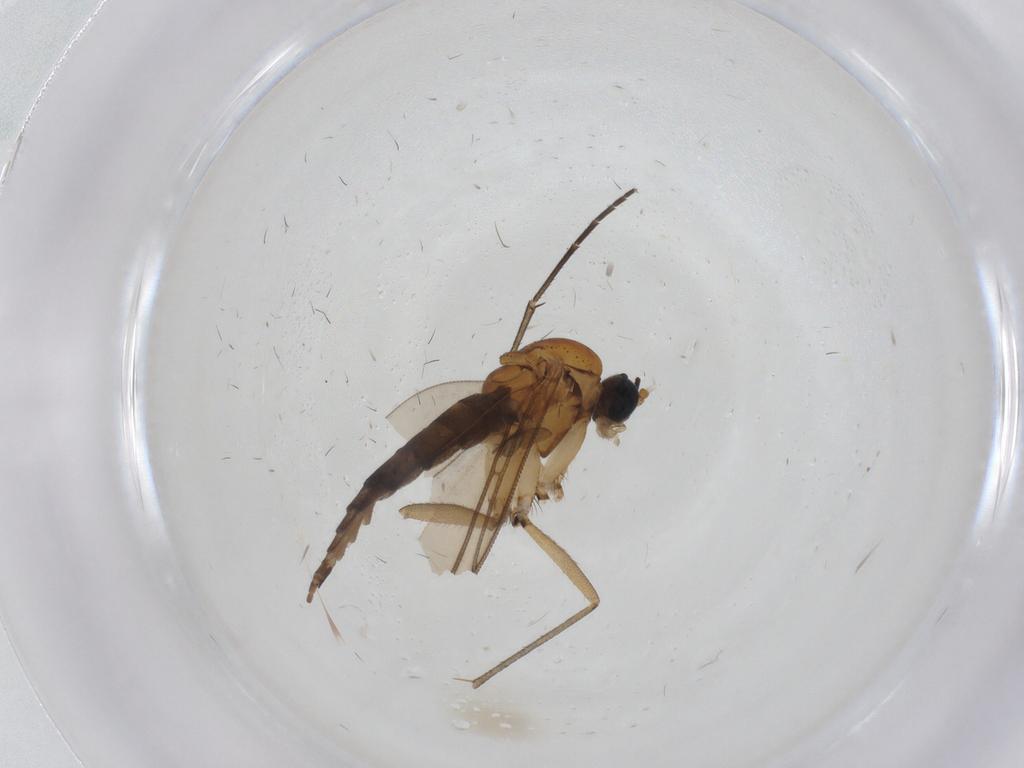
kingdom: Animalia
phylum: Arthropoda
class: Insecta
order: Diptera
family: Sciaridae
